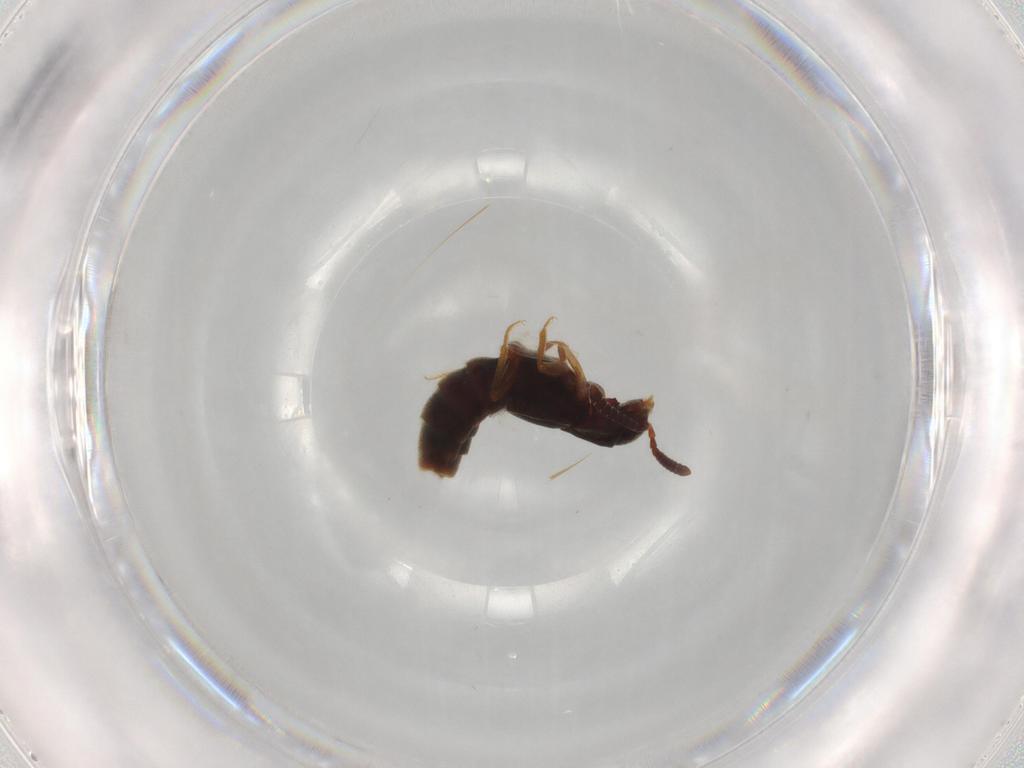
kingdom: Animalia
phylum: Arthropoda
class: Insecta
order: Coleoptera
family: Staphylinidae
